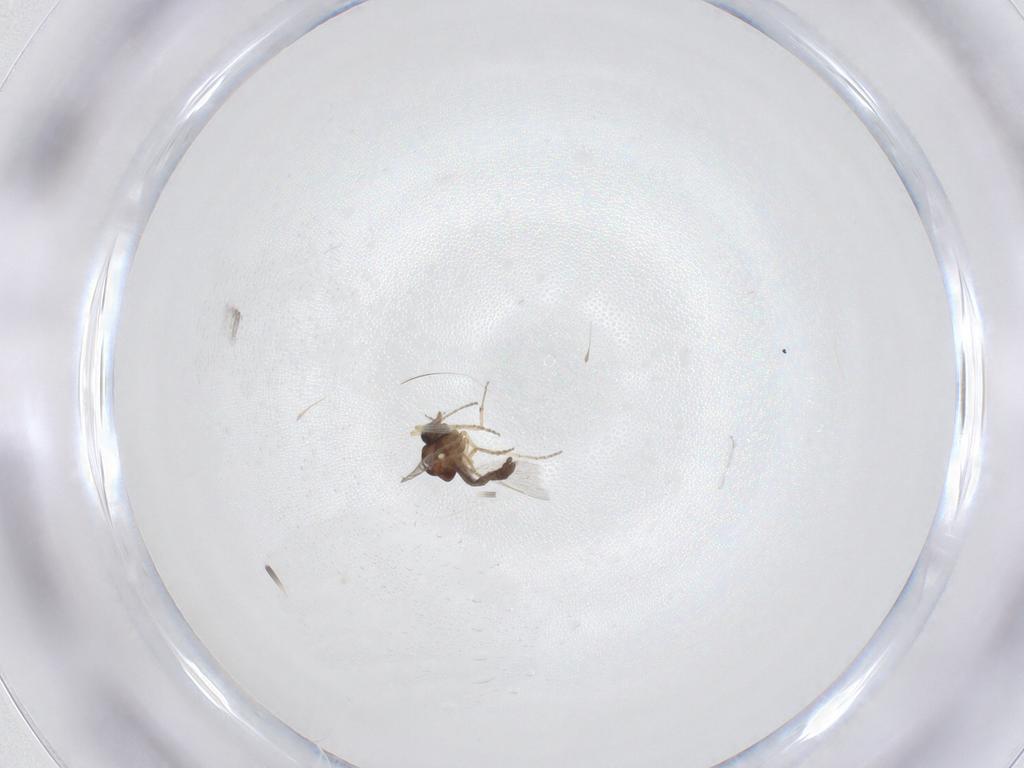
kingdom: Animalia
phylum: Arthropoda
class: Insecta
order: Diptera
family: Ceratopogonidae
